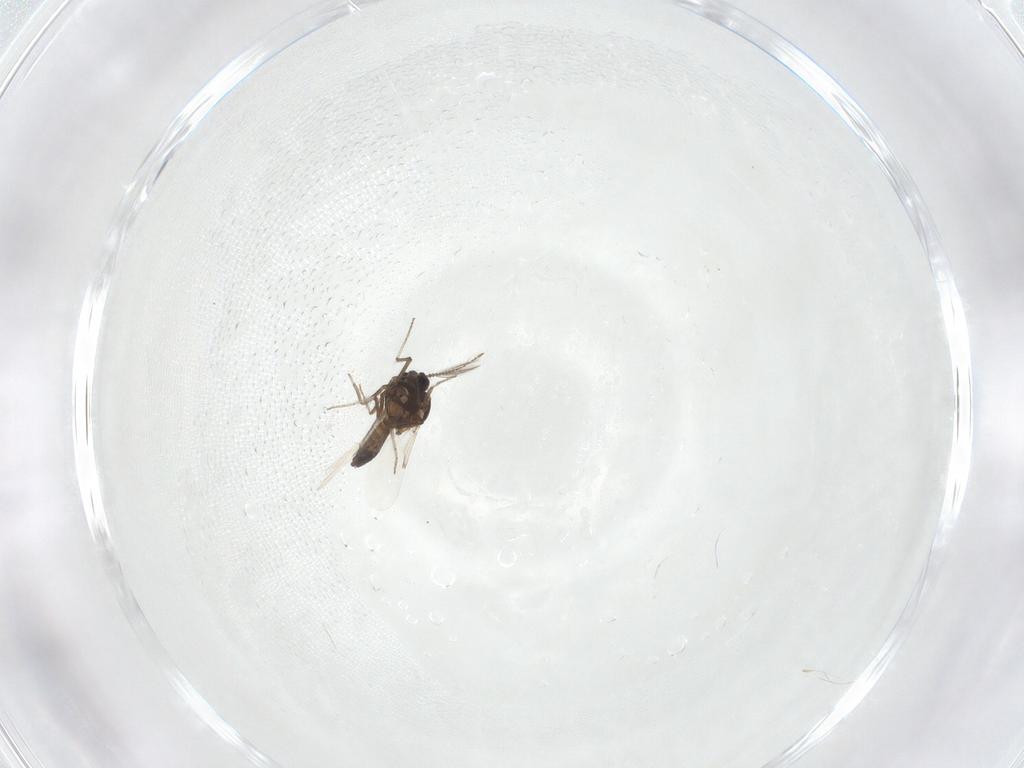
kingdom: Animalia
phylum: Arthropoda
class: Insecta
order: Diptera
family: Ceratopogonidae
